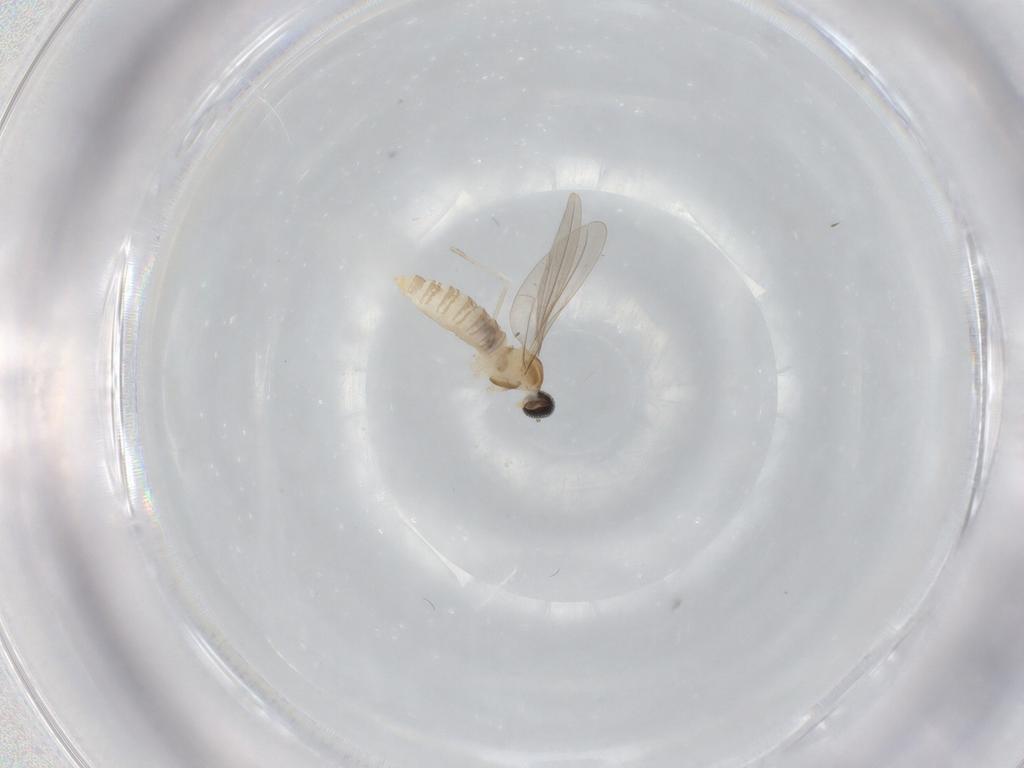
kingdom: Animalia
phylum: Arthropoda
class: Insecta
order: Diptera
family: Cecidomyiidae
